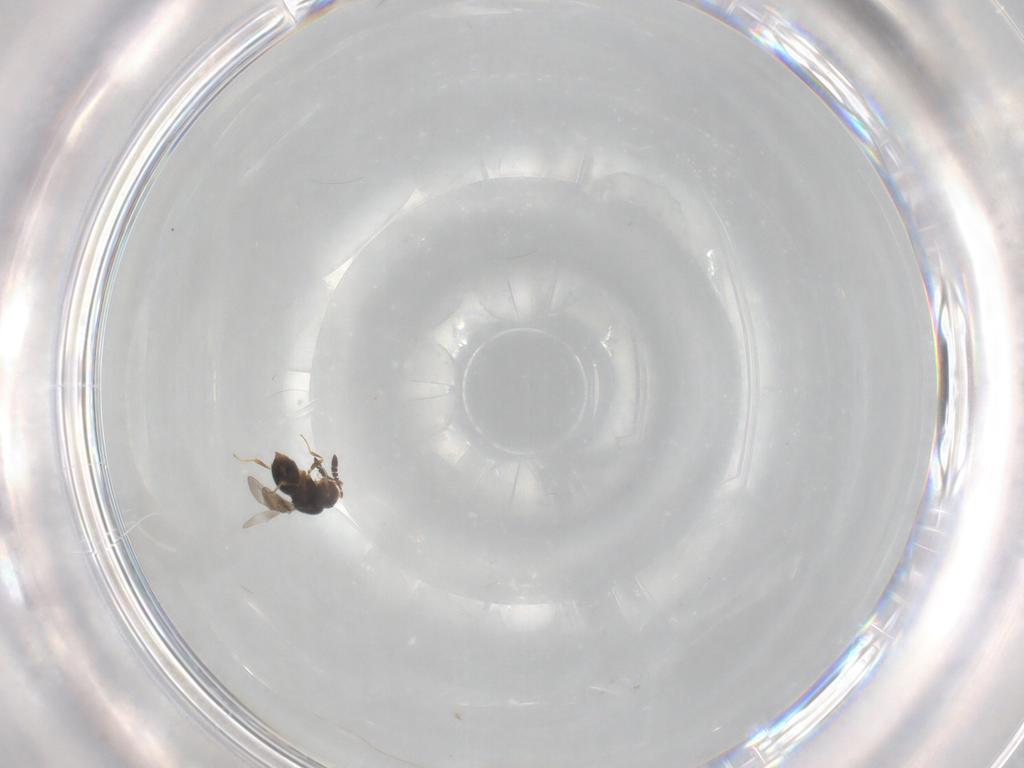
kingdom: Animalia
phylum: Arthropoda
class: Insecta
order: Hymenoptera
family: Ceraphronidae
